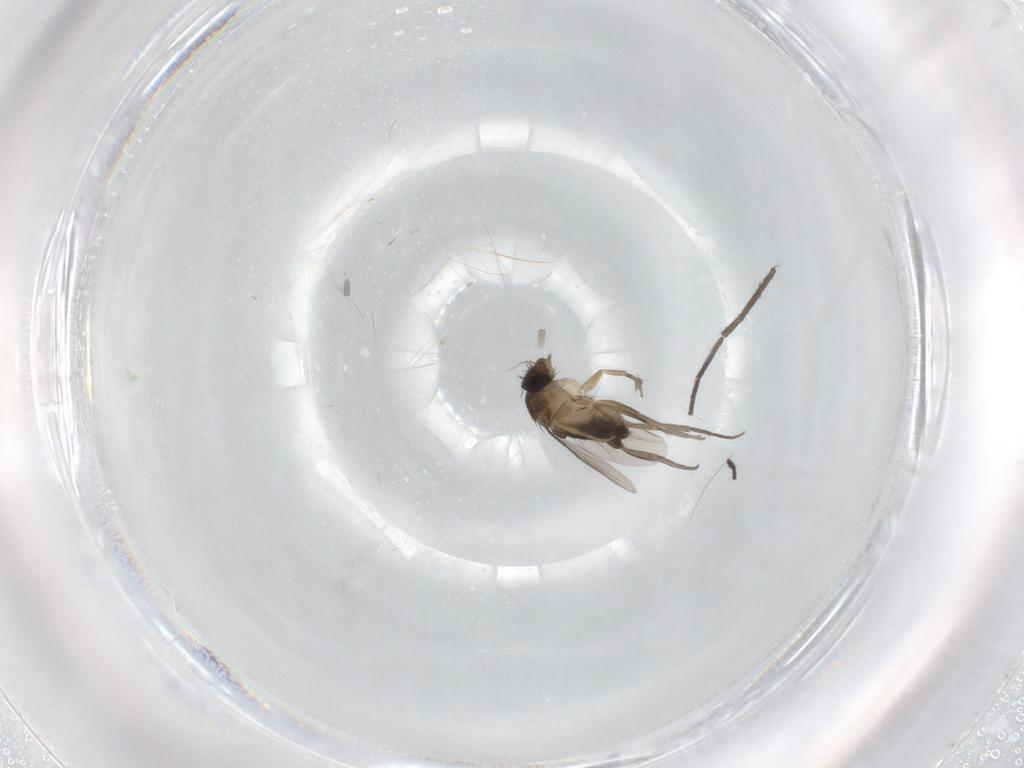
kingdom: Animalia
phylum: Arthropoda
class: Insecta
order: Diptera
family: Phoridae
